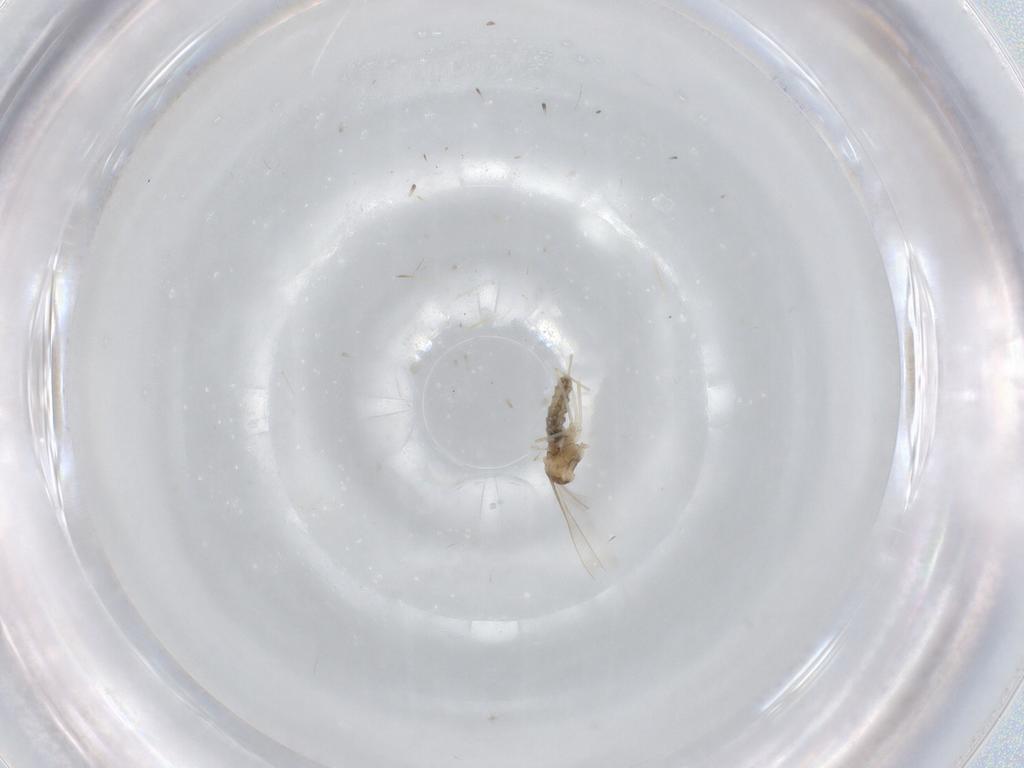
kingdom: Animalia
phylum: Arthropoda
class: Insecta
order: Diptera
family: Cecidomyiidae
